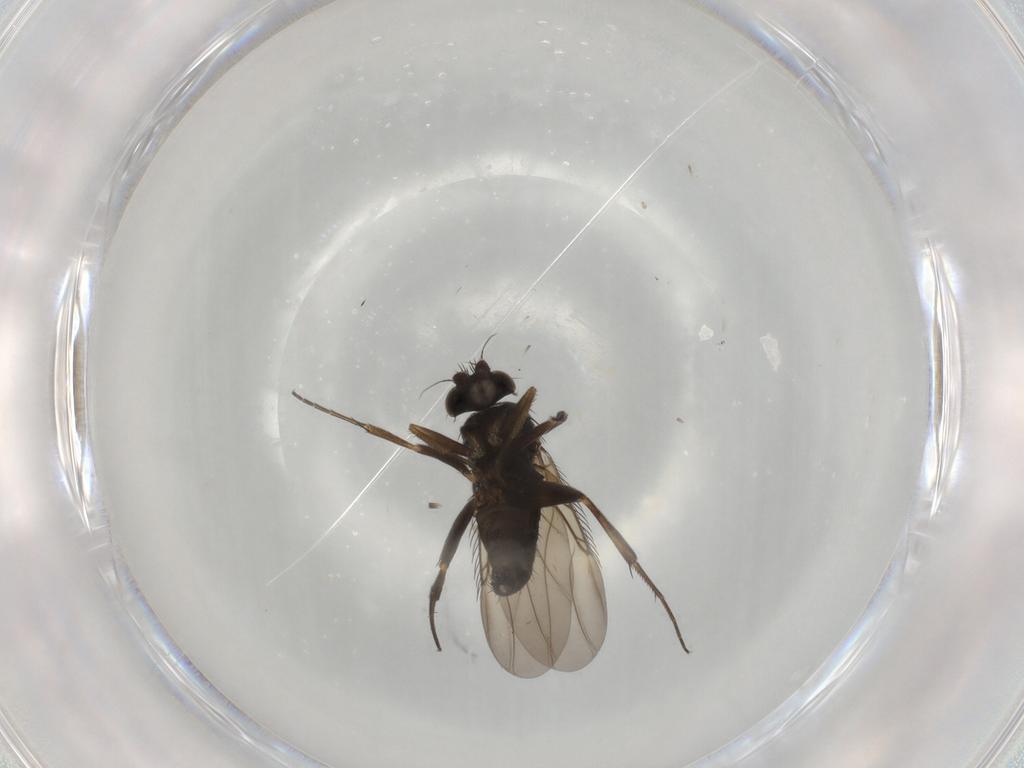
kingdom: Animalia
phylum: Arthropoda
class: Insecta
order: Diptera
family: Phoridae
